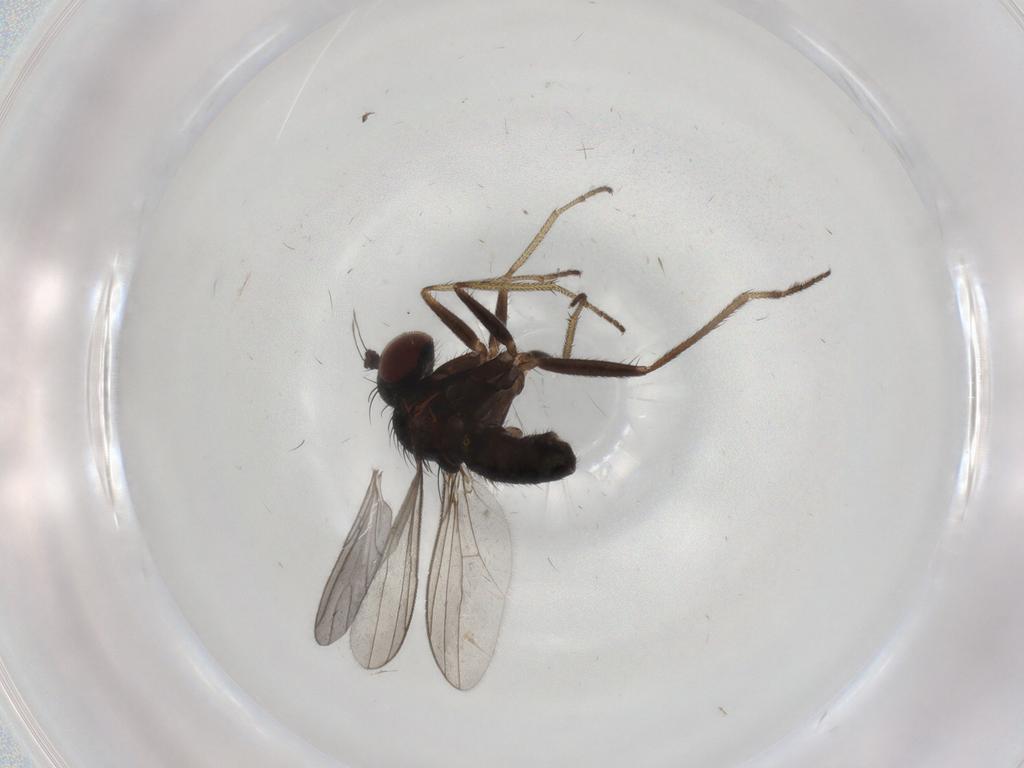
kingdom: Animalia
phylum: Arthropoda
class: Insecta
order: Diptera
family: Sciaridae
